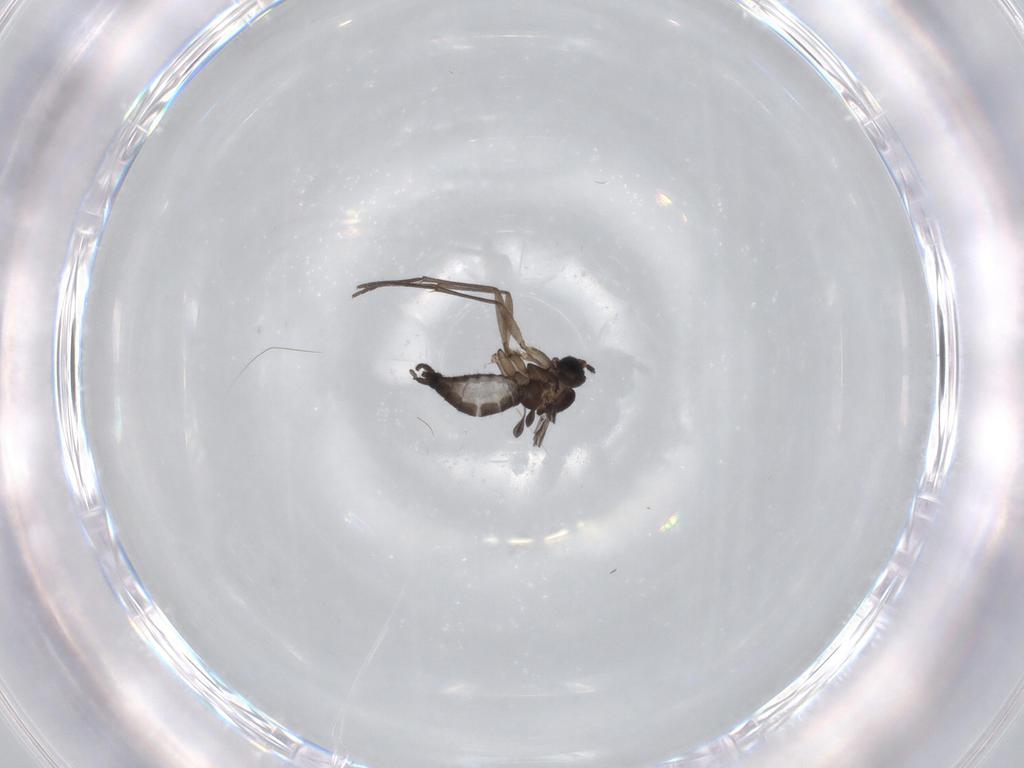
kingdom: Animalia
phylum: Arthropoda
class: Insecta
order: Diptera
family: Sciaridae
